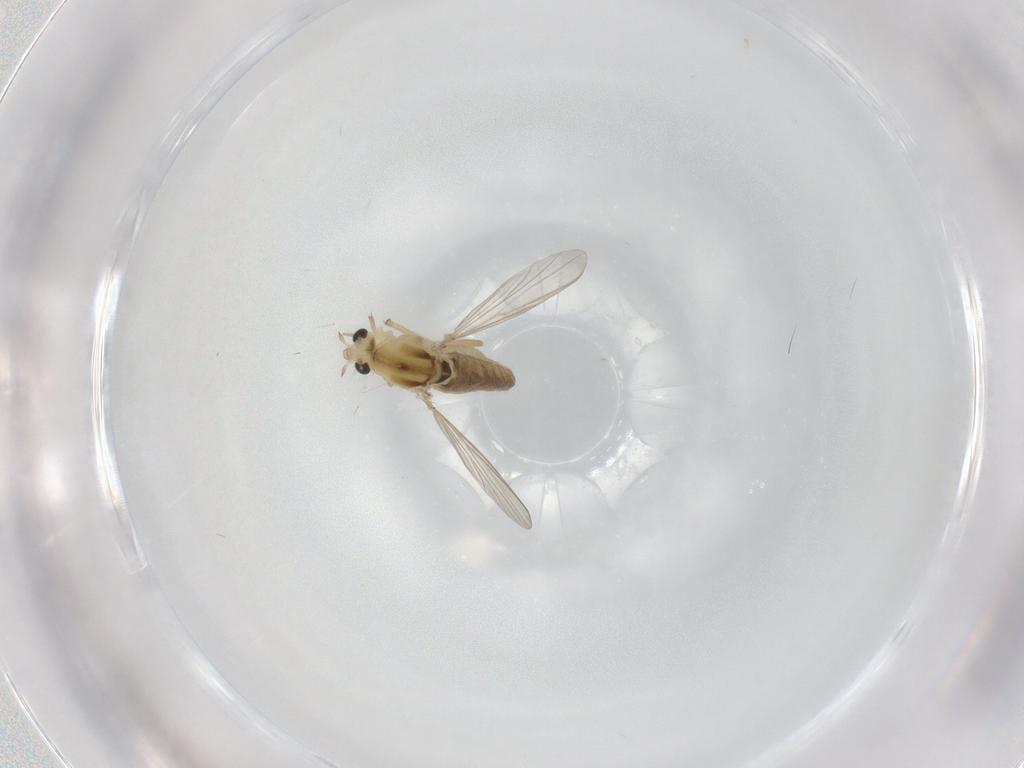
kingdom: Animalia
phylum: Arthropoda
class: Insecta
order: Diptera
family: Chironomidae
